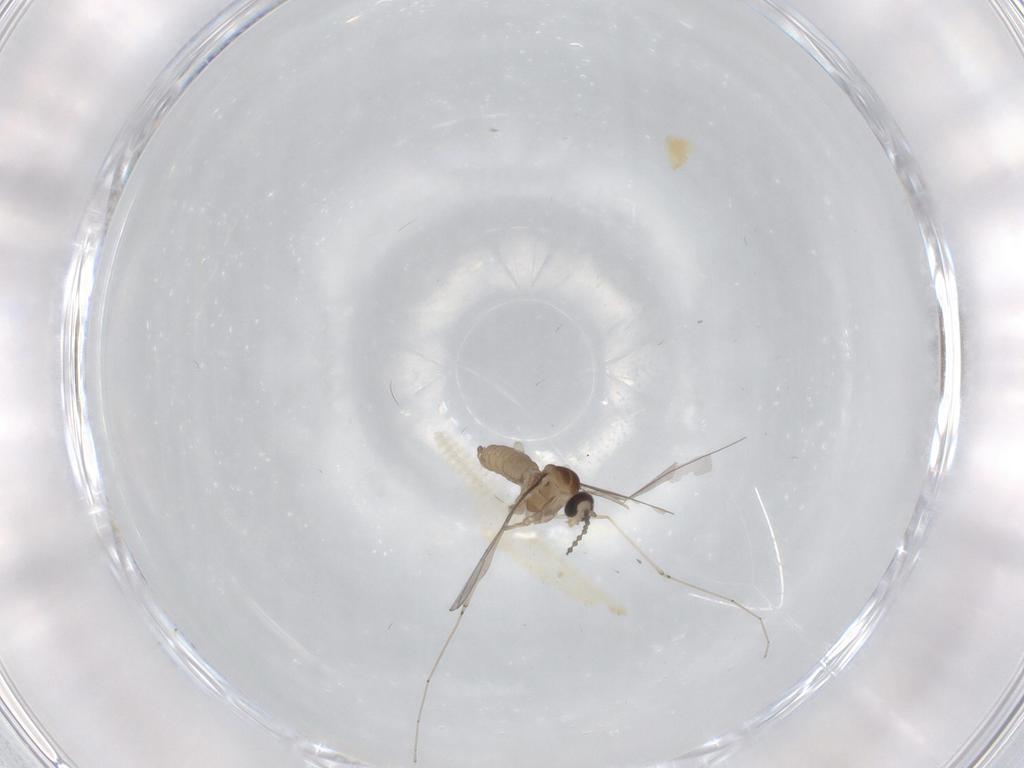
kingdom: Animalia
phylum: Arthropoda
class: Insecta
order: Diptera
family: Cecidomyiidae
